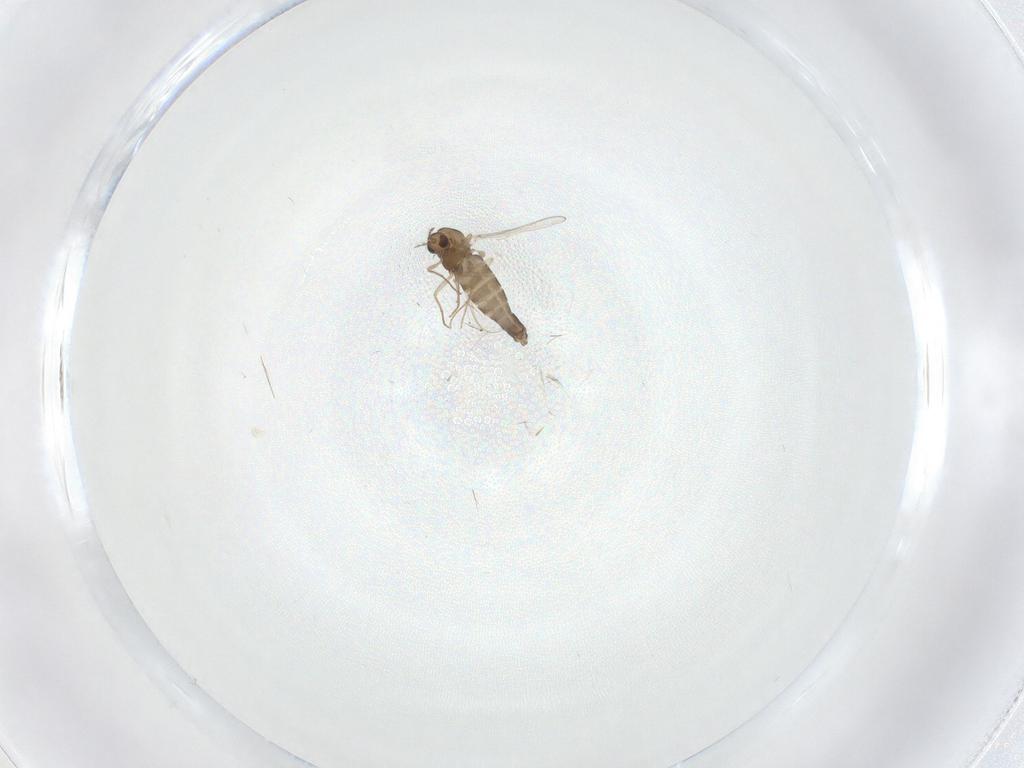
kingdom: Animalia
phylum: Arthropoda
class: Insecta
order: Diptera
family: Chironomidae
